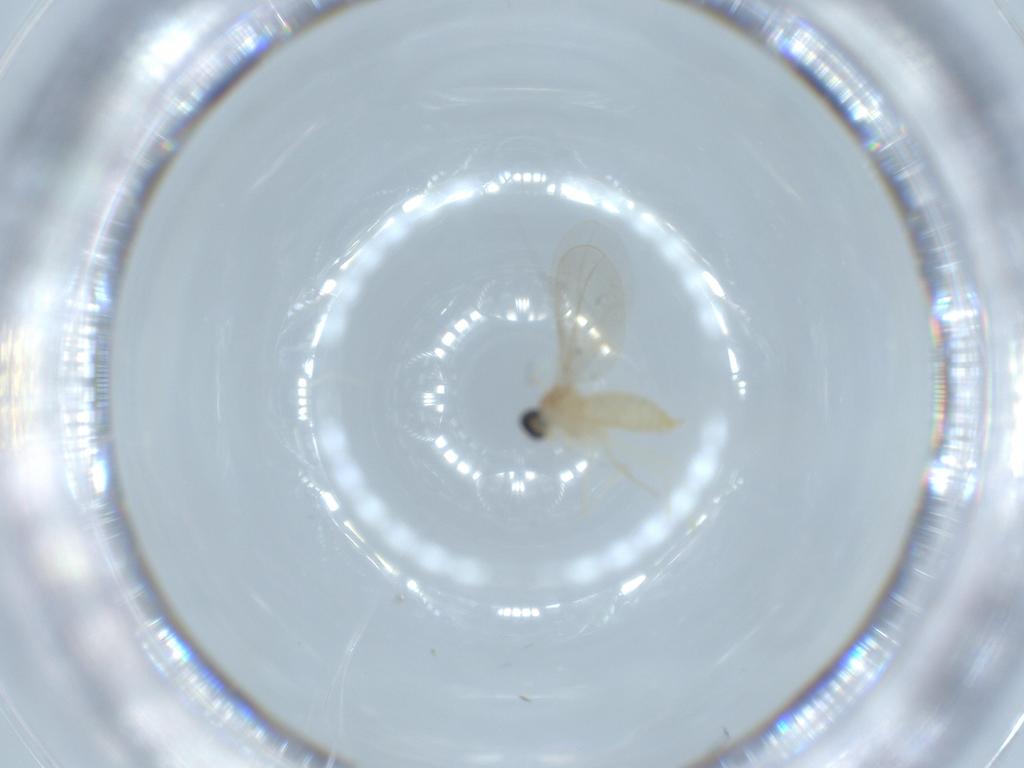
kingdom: Animalia
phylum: Arthropoda
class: Insecta
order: Diptera
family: Cecidomyiidae
